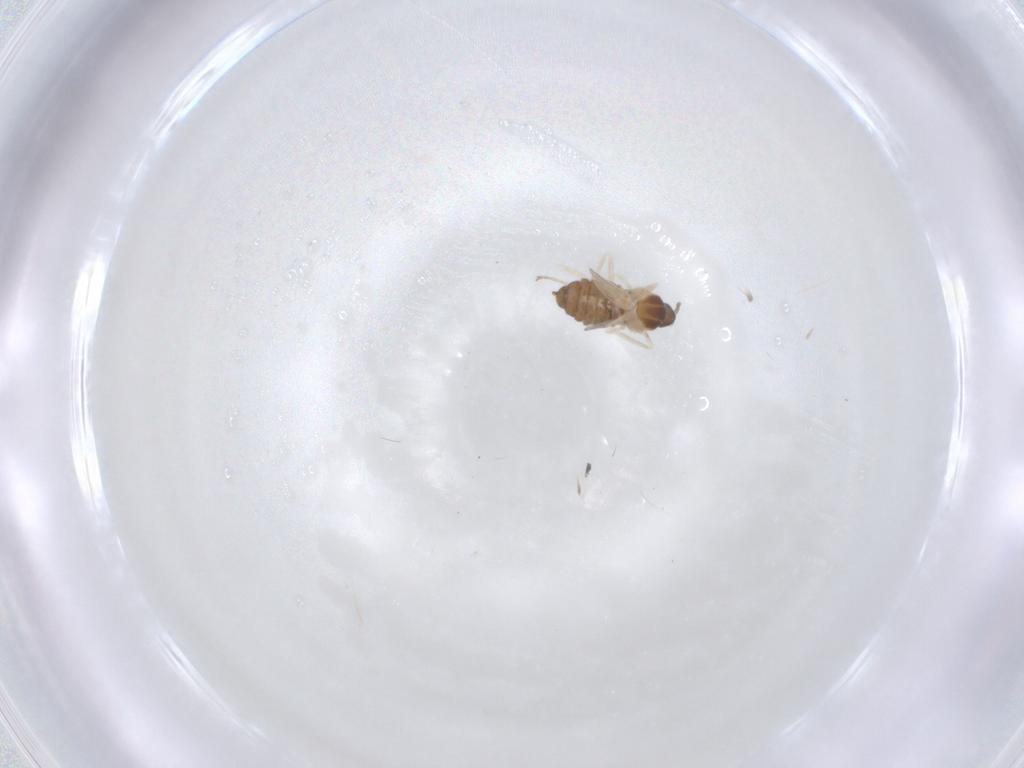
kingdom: Animalia
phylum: Arthropoda
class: Insecta
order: Diptera
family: Cecidomyiidae
